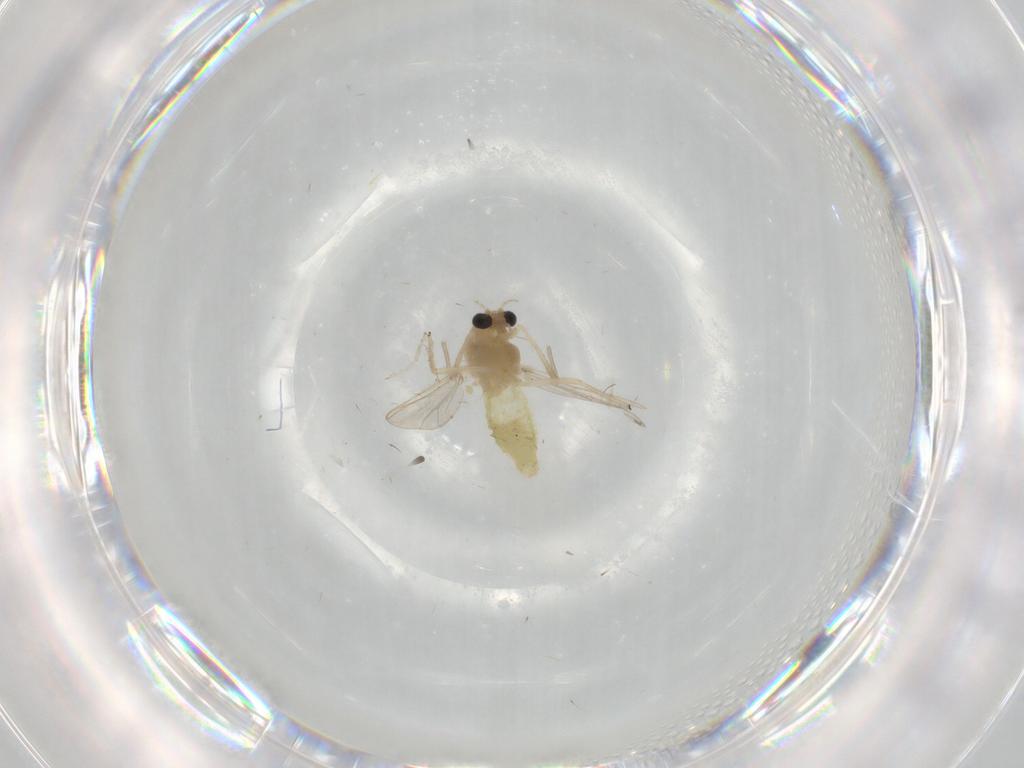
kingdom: Animalia
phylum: Arthropoda
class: Insecta
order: Diptera
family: Chironomidae
